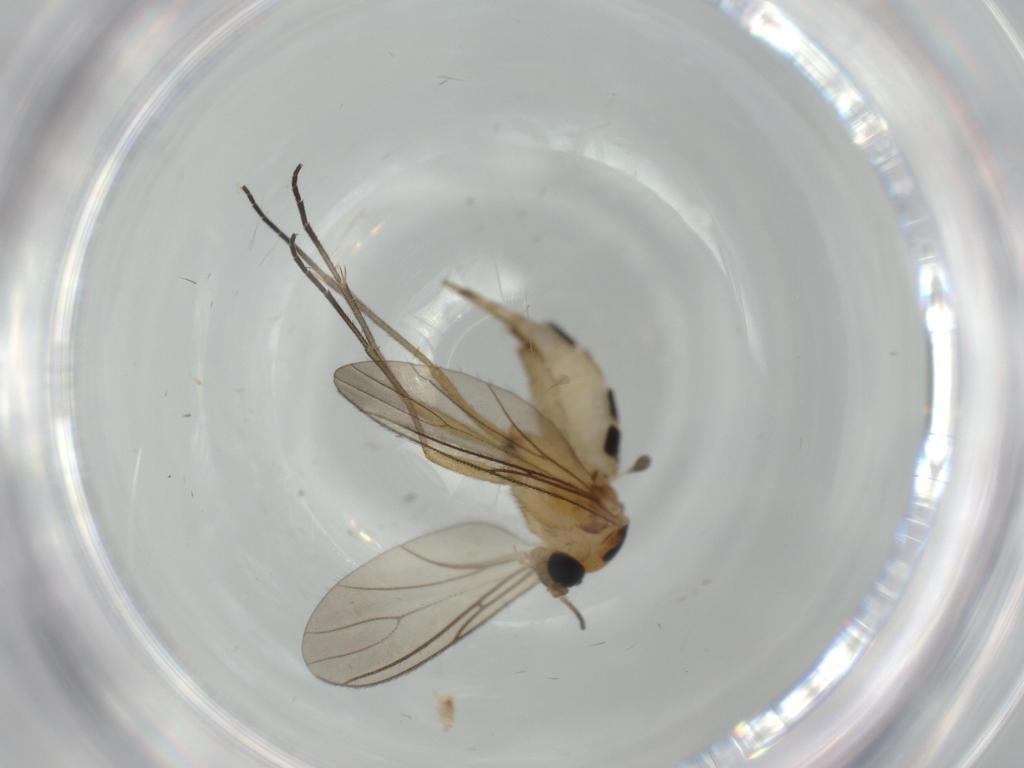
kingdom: Animalia
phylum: Arthropoda
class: Insecta
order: Diptera
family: Sciaridae
